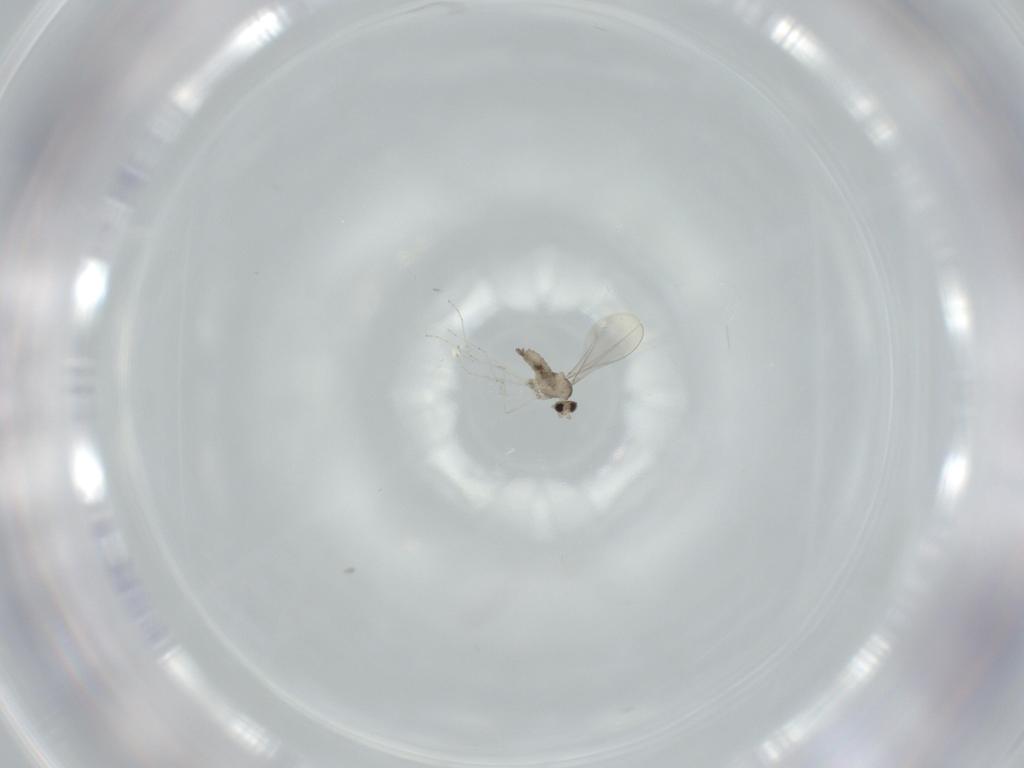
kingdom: Animalia
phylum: Arthropoda
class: Insecta
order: Diptera
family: Cecidomyiidae
